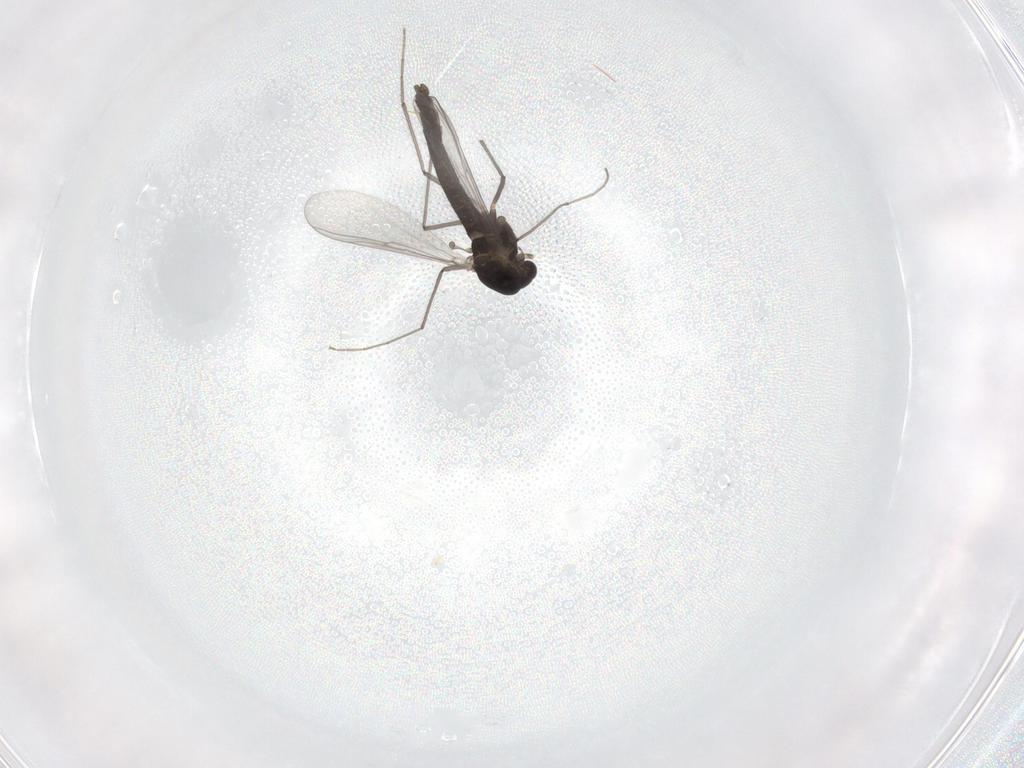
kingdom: Animalia
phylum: Arthropoda
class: Insecta
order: Diptera
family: Chironomidae
